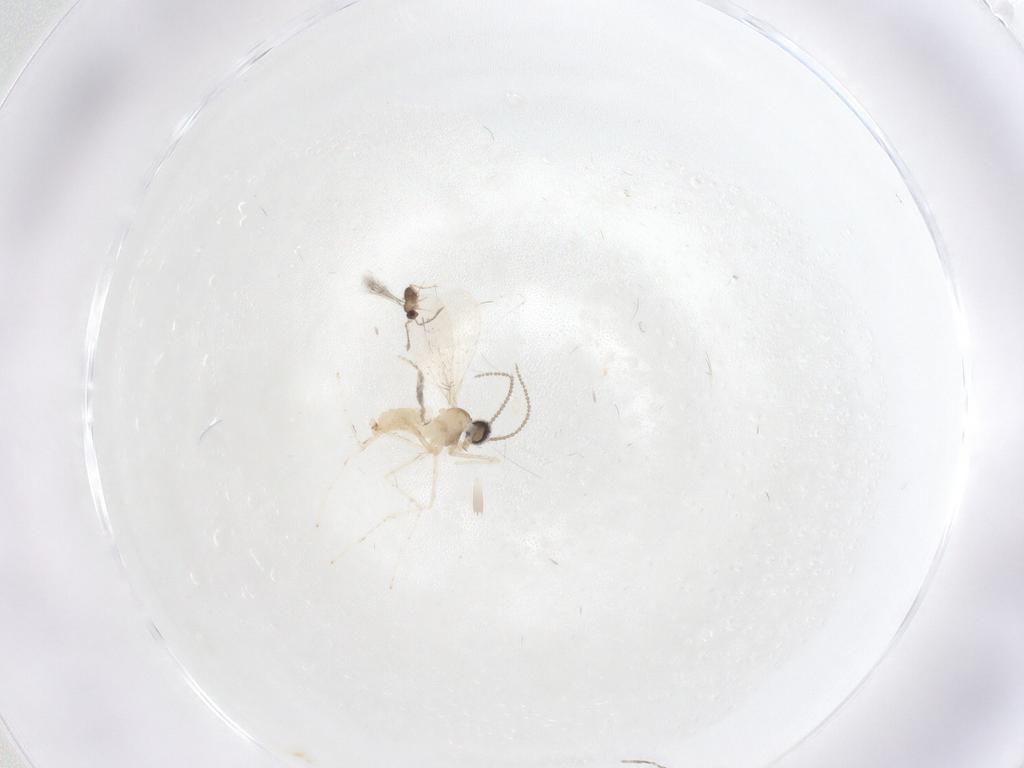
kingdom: Animalia
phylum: Arthropoda
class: Insecta
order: Diptera
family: Cecidomyiidae
